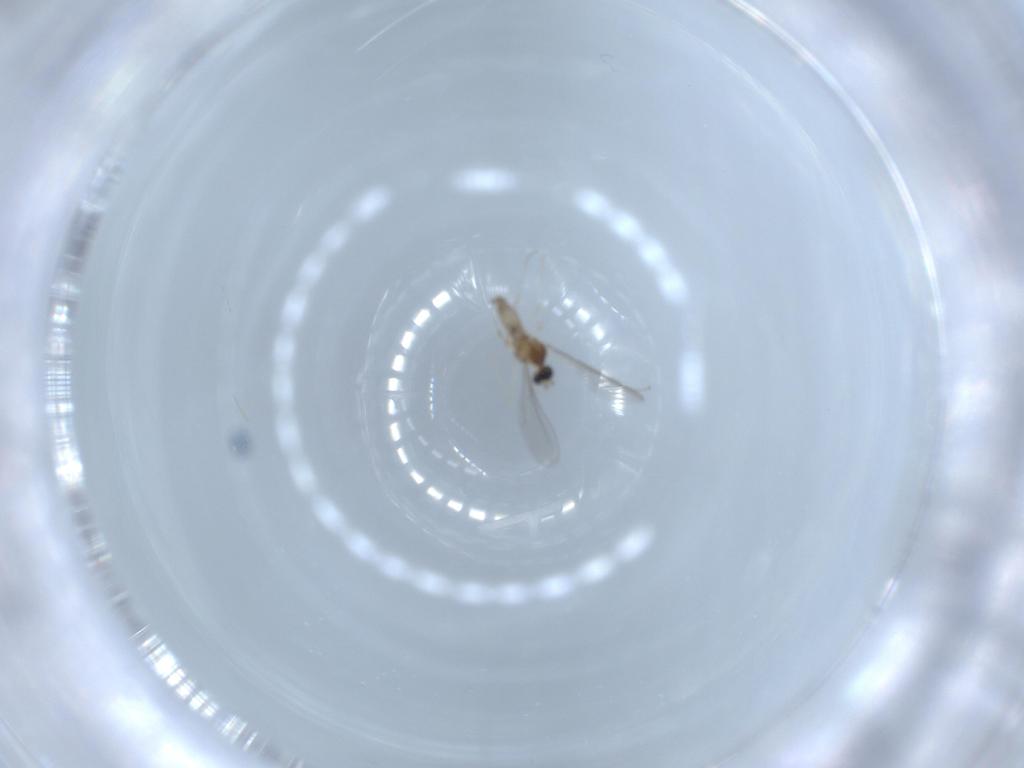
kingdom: Animalia
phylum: Arthropoda
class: Insecta
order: Diptera
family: Cecidomyiidae
